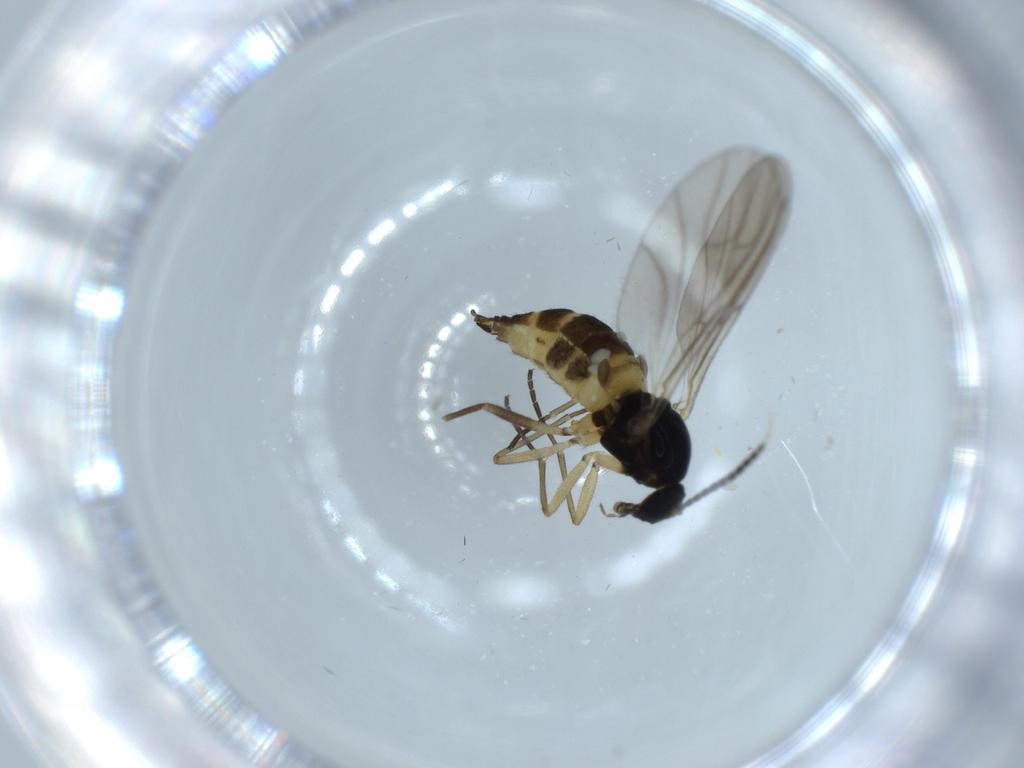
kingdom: Animalia
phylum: Arthropoda
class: Insecta
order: Diptera
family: Sciaridae
